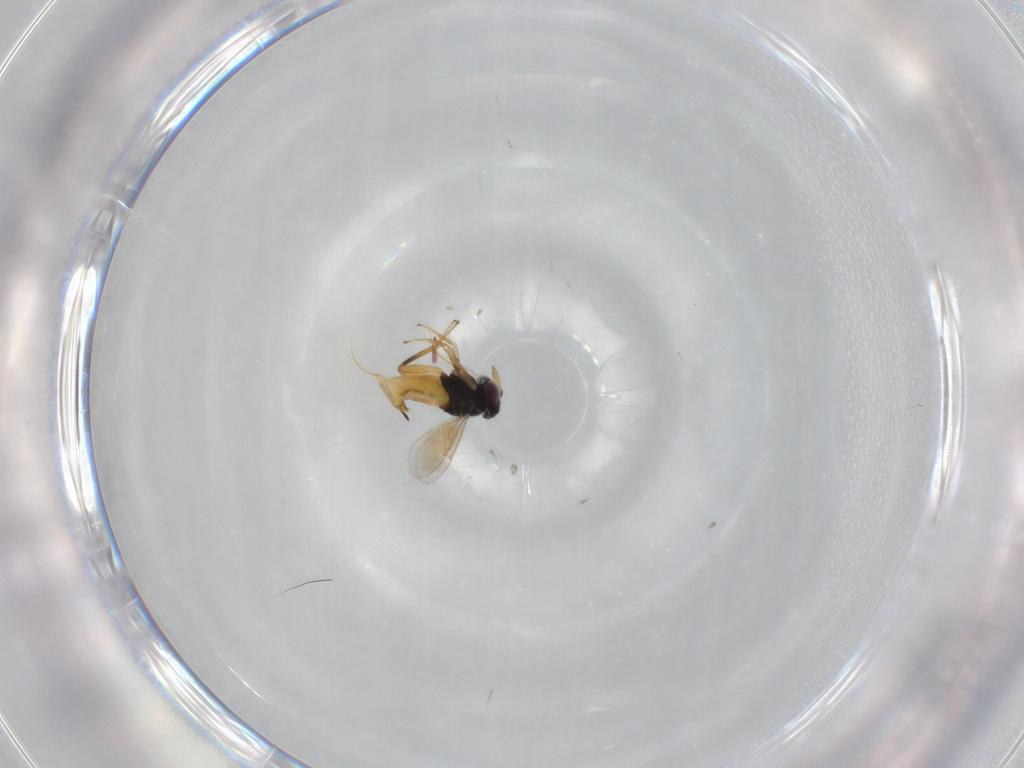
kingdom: Animalia
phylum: Arthropoda
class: Insecta
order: Hymenoptera
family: Aphelinidae
